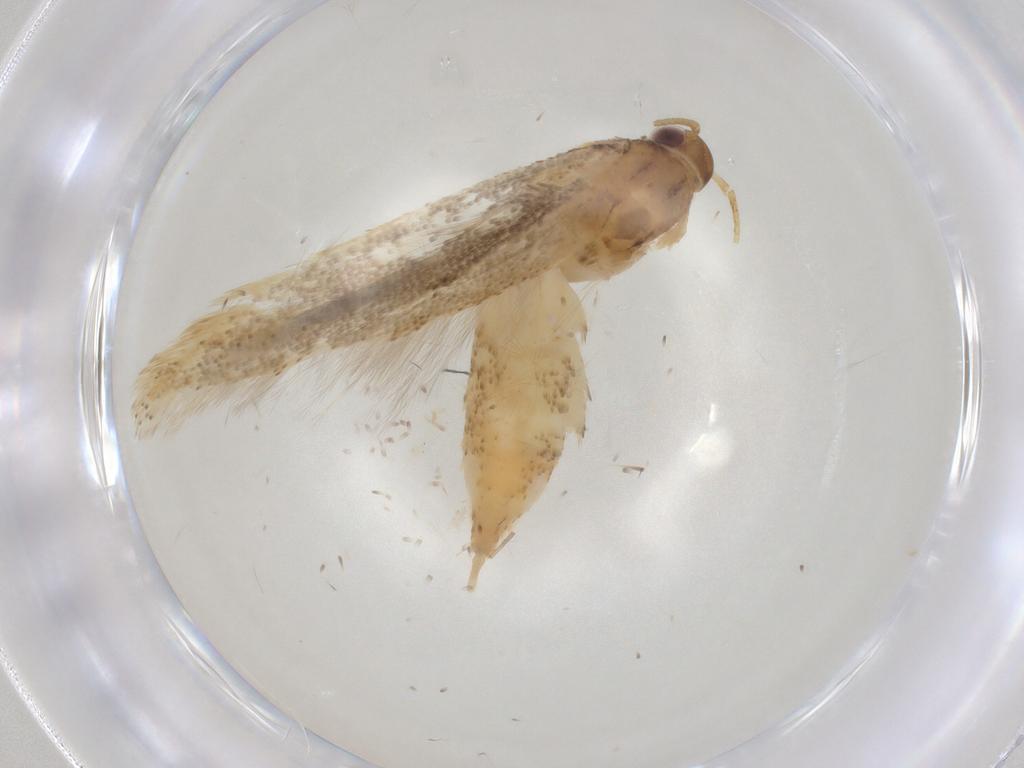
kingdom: Animalia
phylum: Arthropoda
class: Insecta
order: Lepidoptera
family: Gelechiidae
